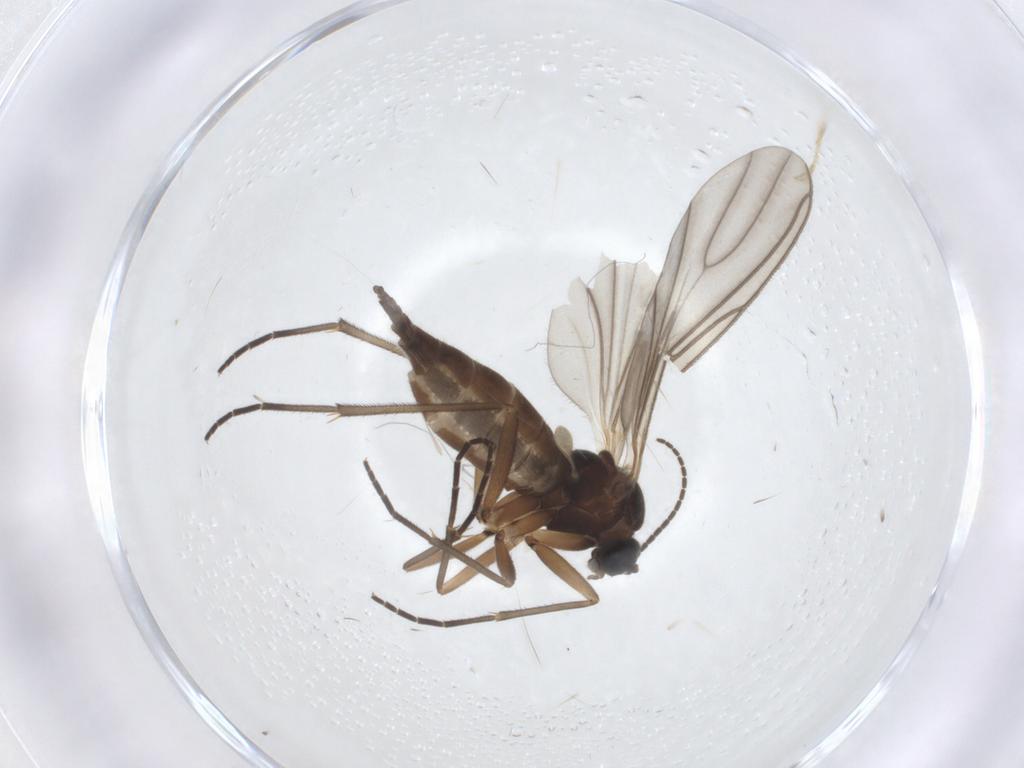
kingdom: Animalia
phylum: Arthropoda
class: Insecta
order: Diptera
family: Sciaridae
